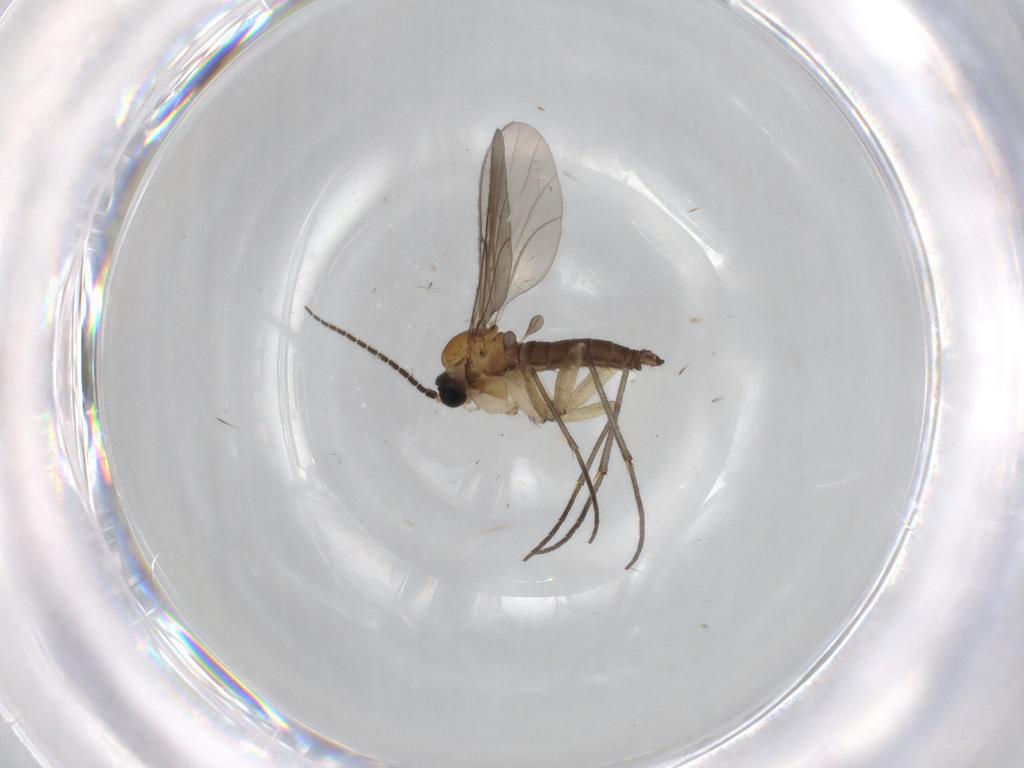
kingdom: Animalia
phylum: Arthropoda
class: Insecta
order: Diptera
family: Sciaridae
